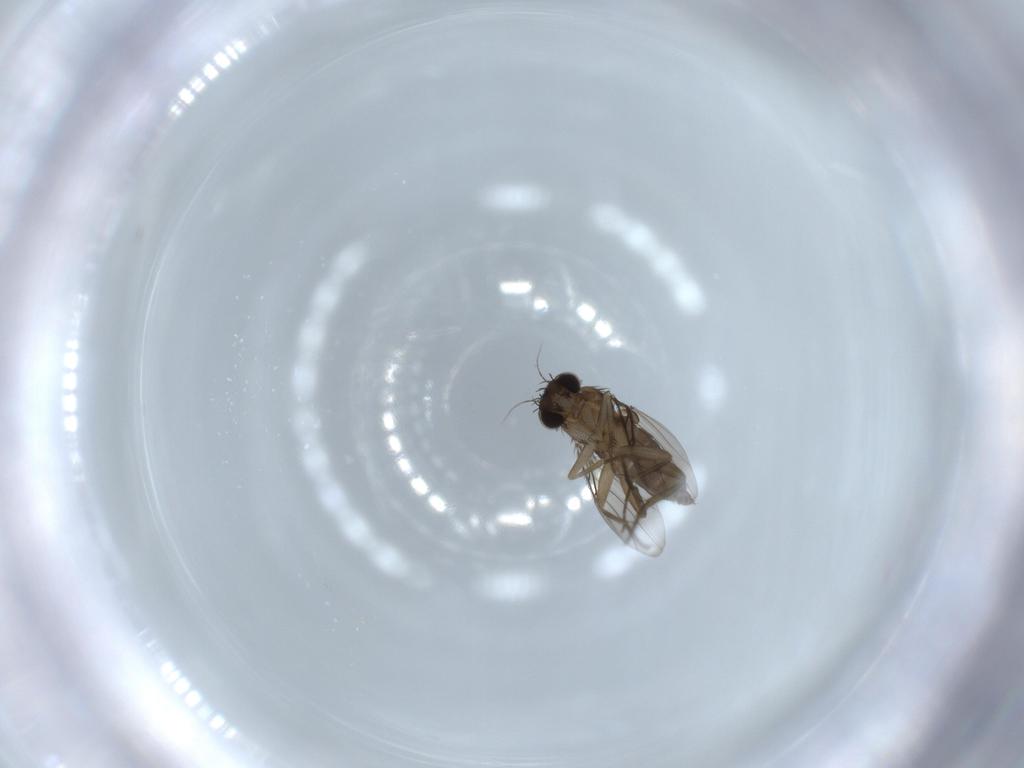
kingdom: Animalia
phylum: Arthropoda
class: Insecta
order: Diptera
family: Phoridae
